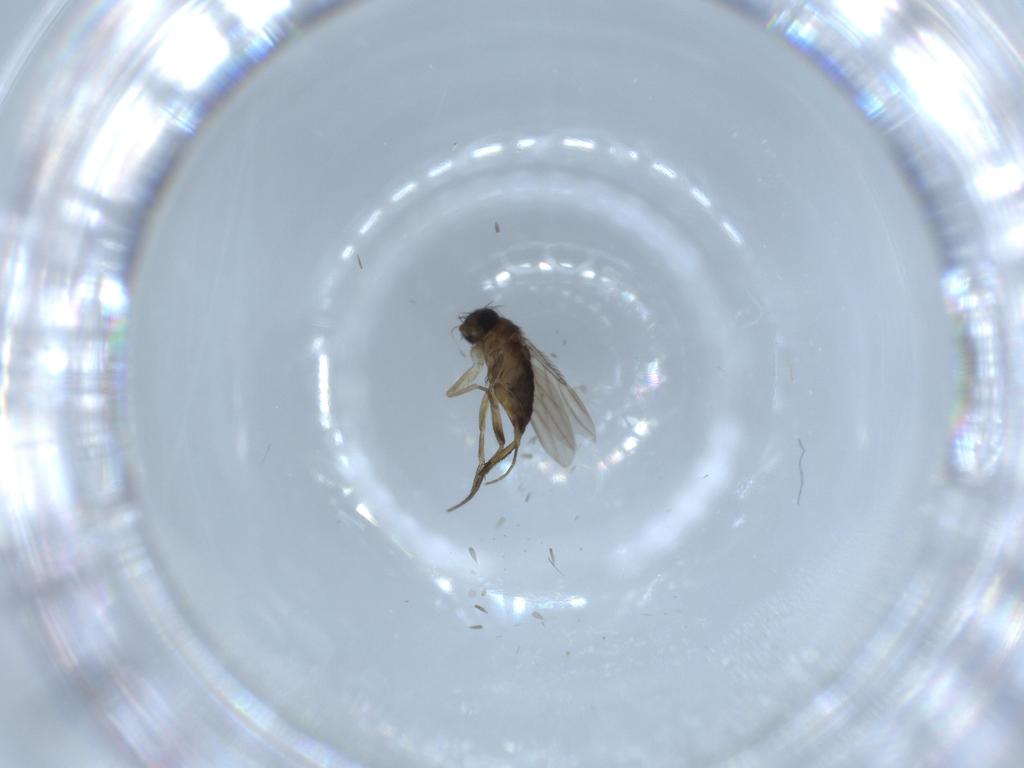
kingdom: Animalia
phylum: Arthropoda
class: Insecta
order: Diptera
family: Phoridae
